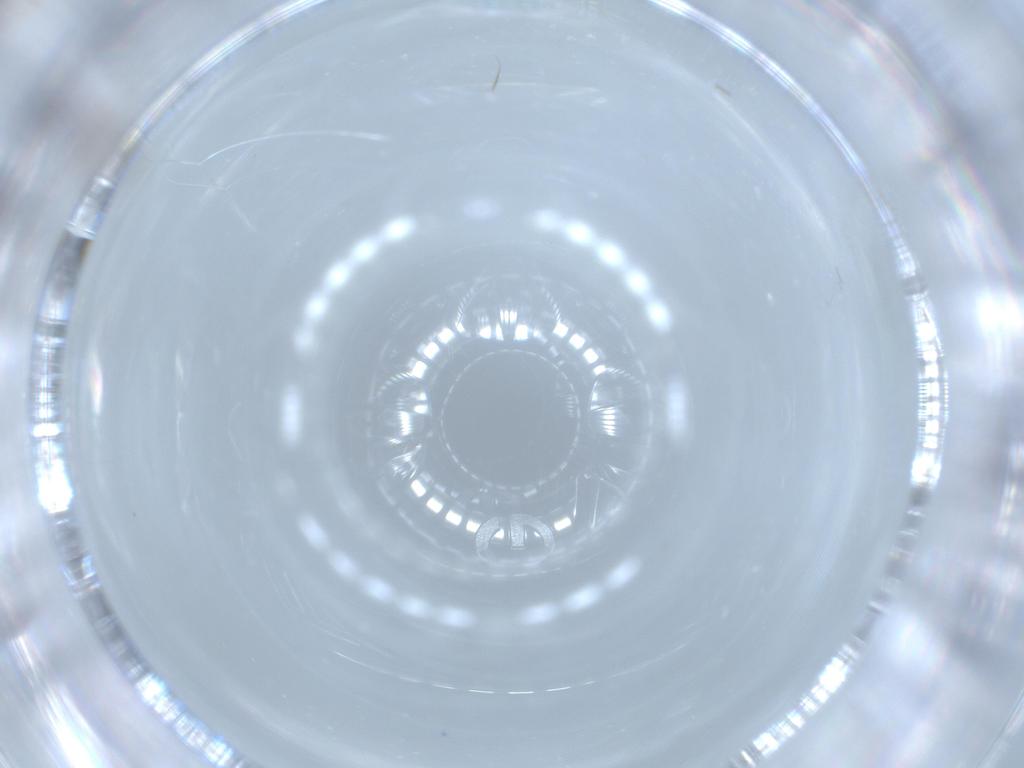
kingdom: Animalia
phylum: Arthropoda
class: Insecta
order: Diptera
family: Cecidomyiidae
